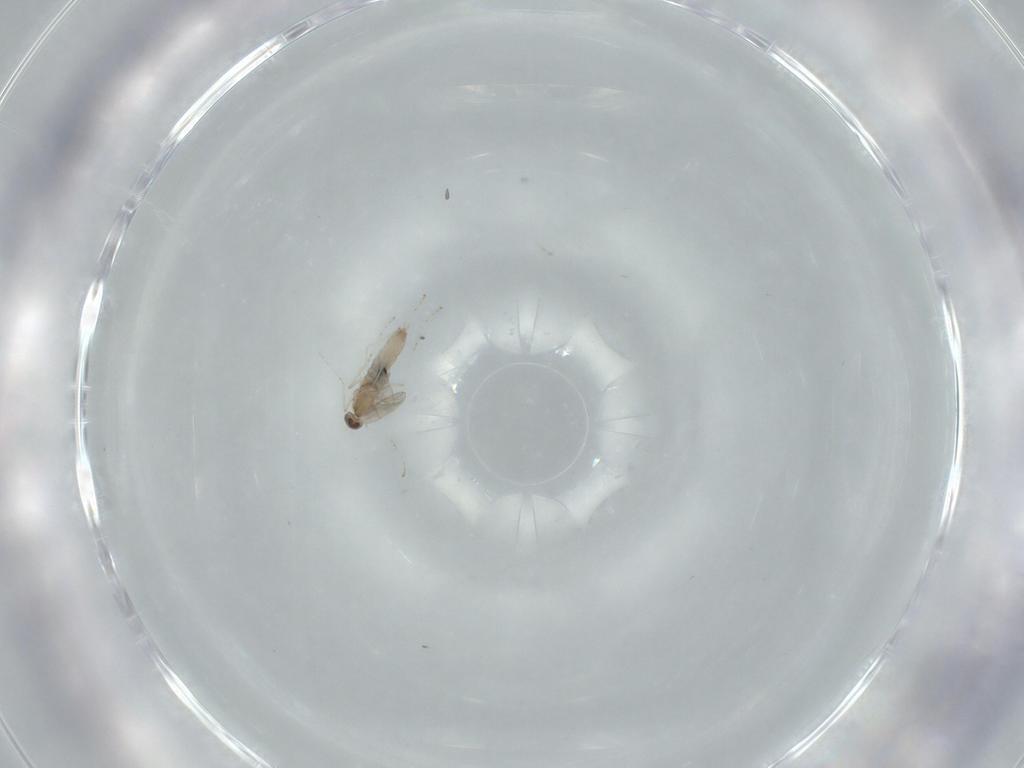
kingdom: Animalia
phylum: Arthropoda
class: Insecta
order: Diptera
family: Cecidomyiidae
